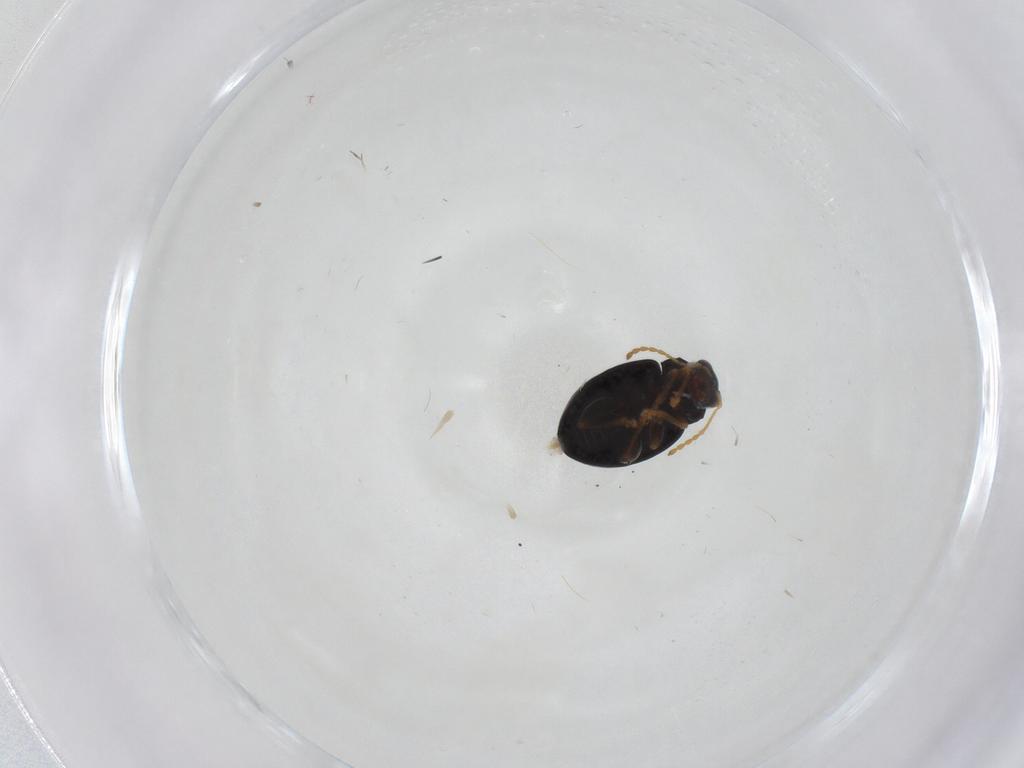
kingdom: Animalia
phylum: Arthropoda
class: Insecta
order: Coleoptera
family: Chrysomelidae
